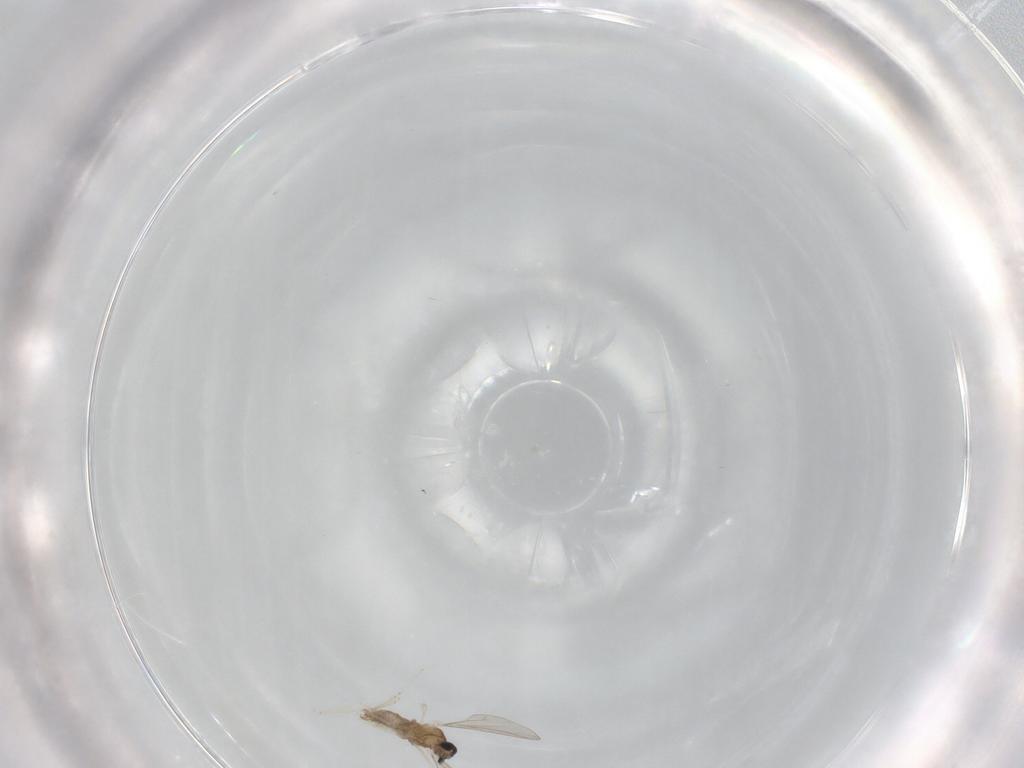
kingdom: Animalia
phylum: Arthropoda
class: Insecta
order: Diptera
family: Cecidomyiidae
